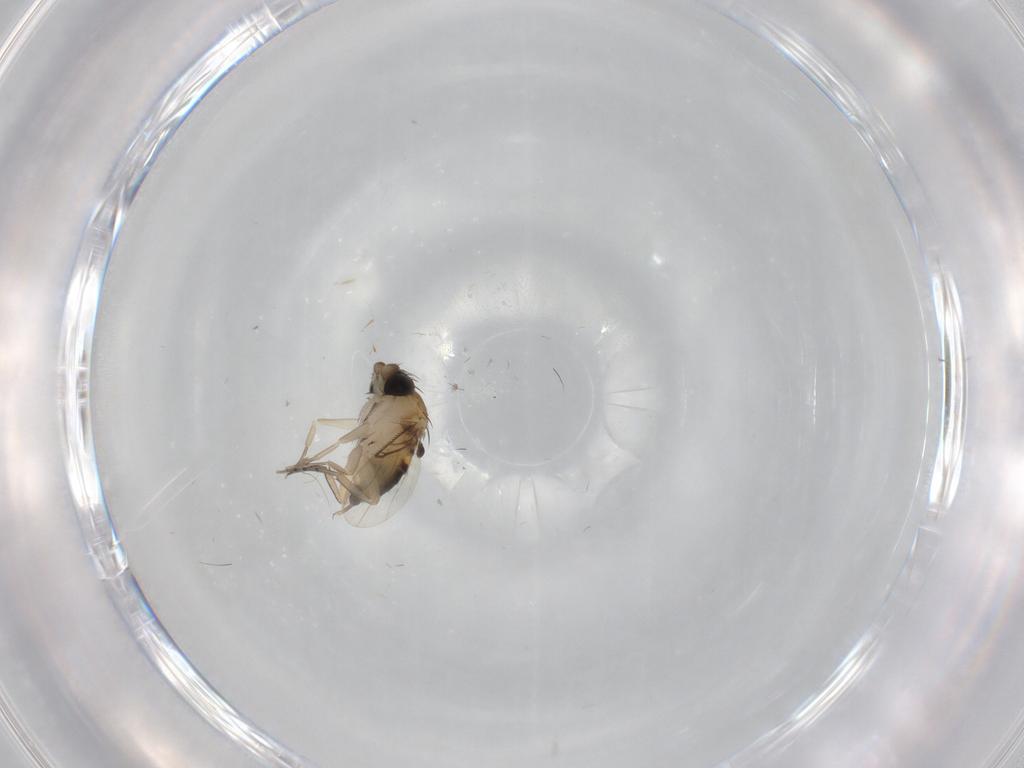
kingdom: Animalia
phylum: Arthropoda
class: Insecta
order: Diptera
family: Phoridae
